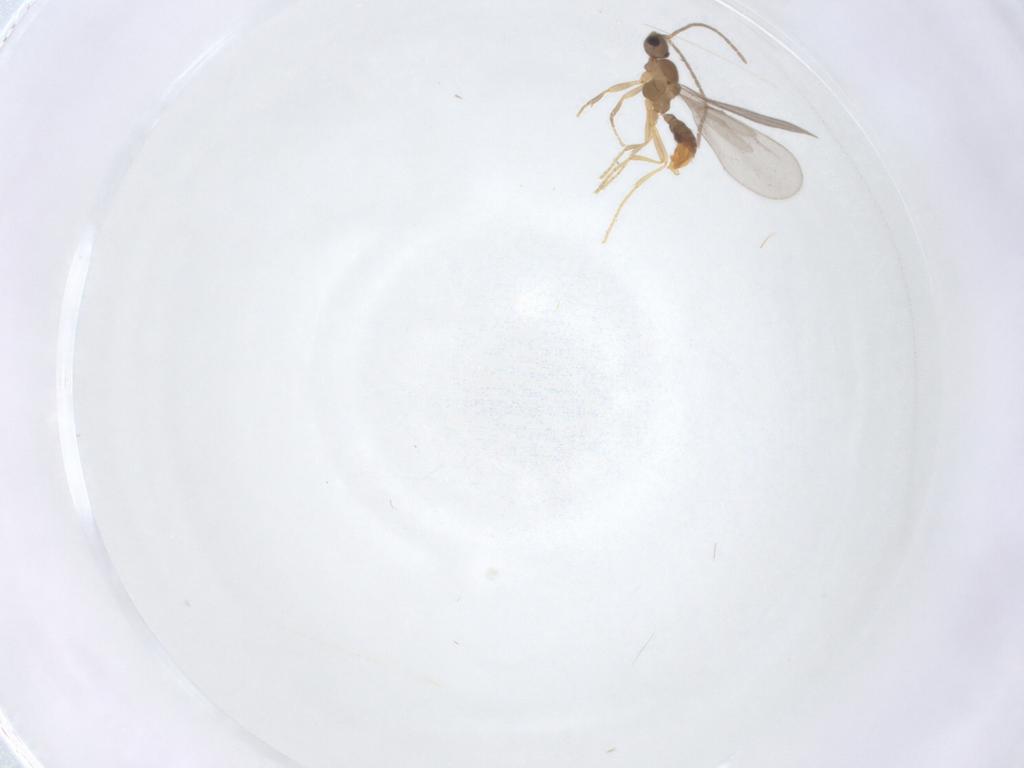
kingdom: Animalia
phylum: Arthropoda
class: Insecta
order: Hymenoptera
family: Formicidae
